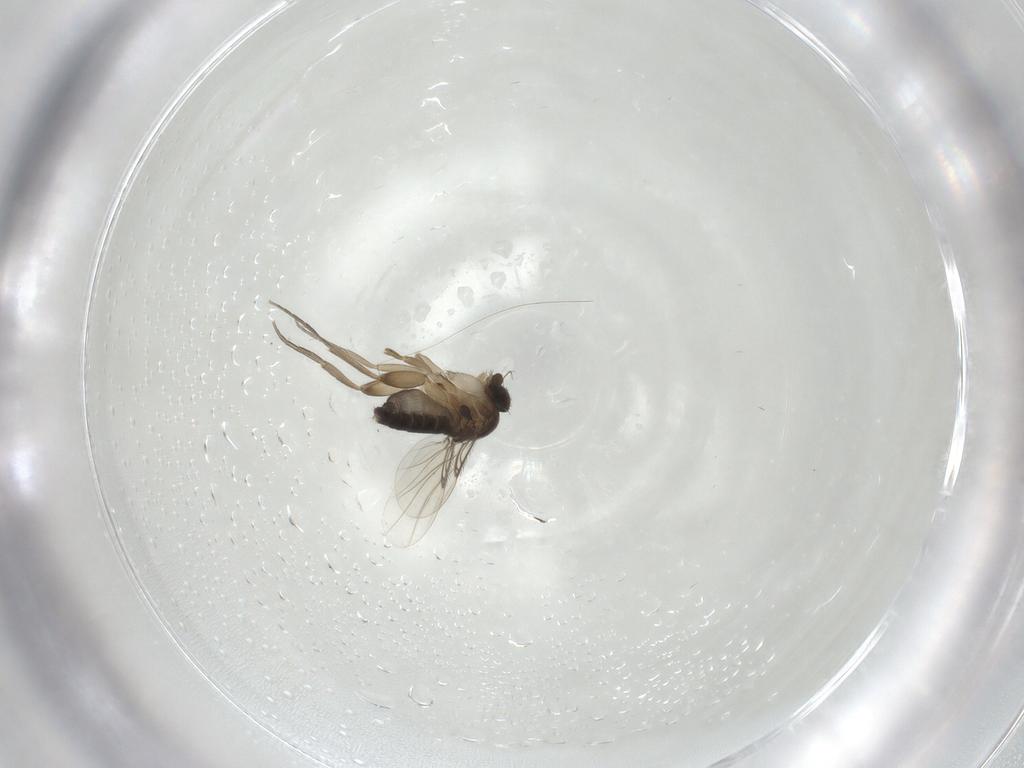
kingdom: Animalia
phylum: Arthropoda
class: Insecta
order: Diptera
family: Phoridae
